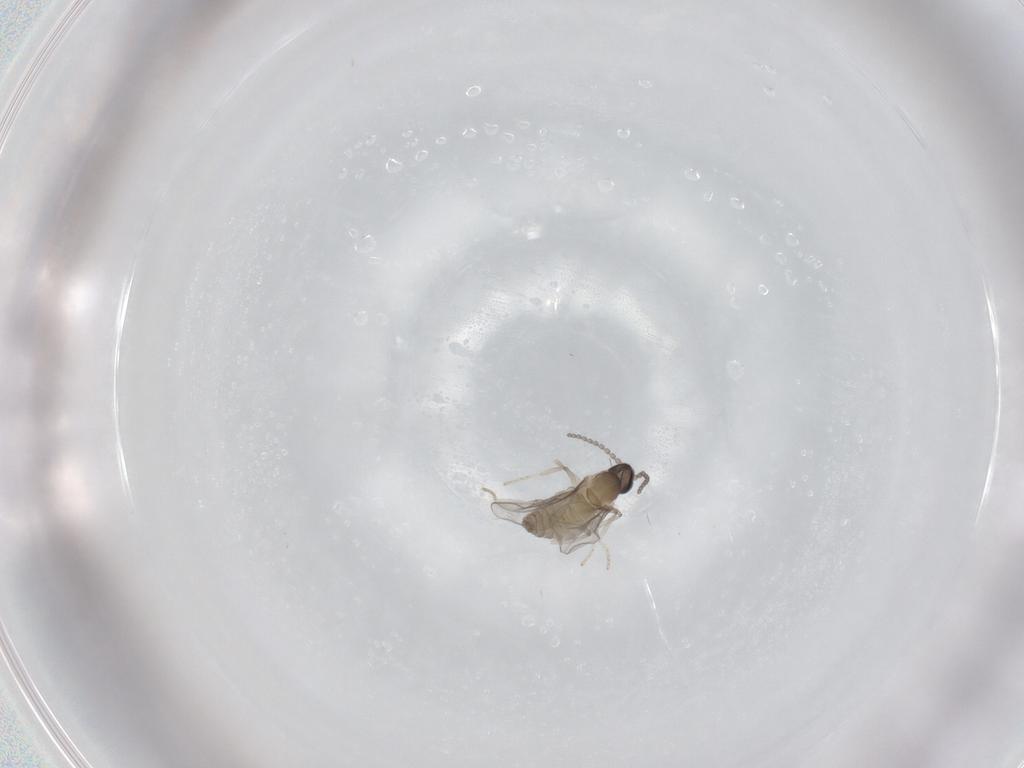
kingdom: Animalia
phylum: Arthropoda
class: Insecta
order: Diptera
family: Cecidomyiidae
